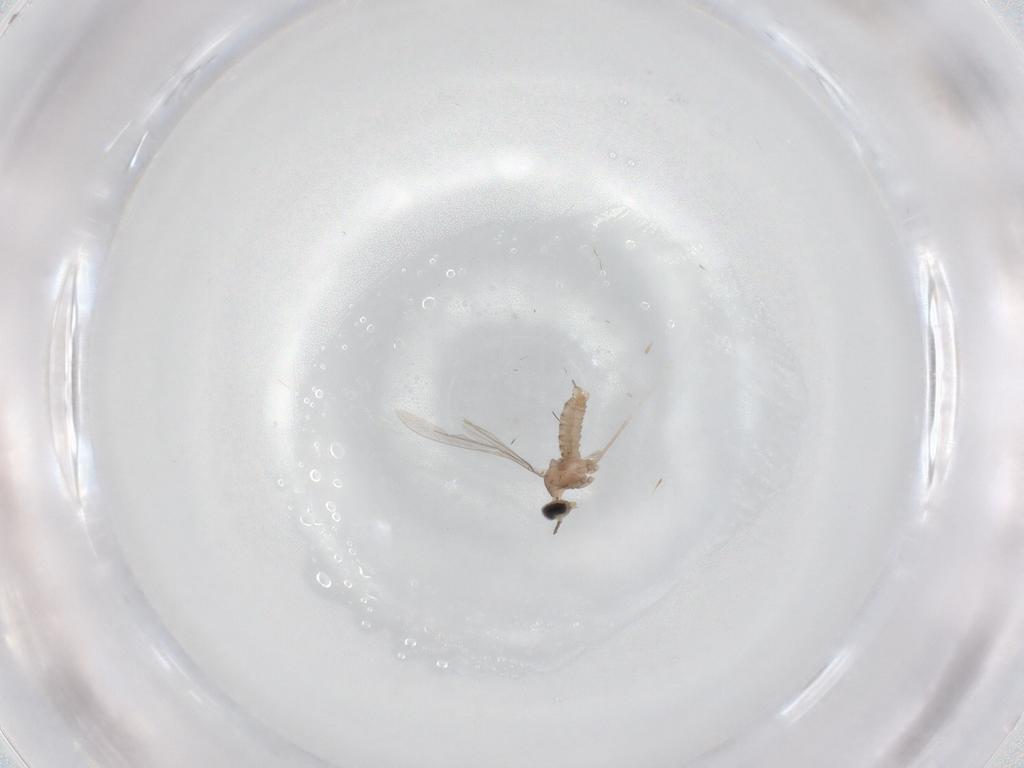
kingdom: Animalia
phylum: Arthropoda
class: Insecta
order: Diptera
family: Cecidomyiidae
